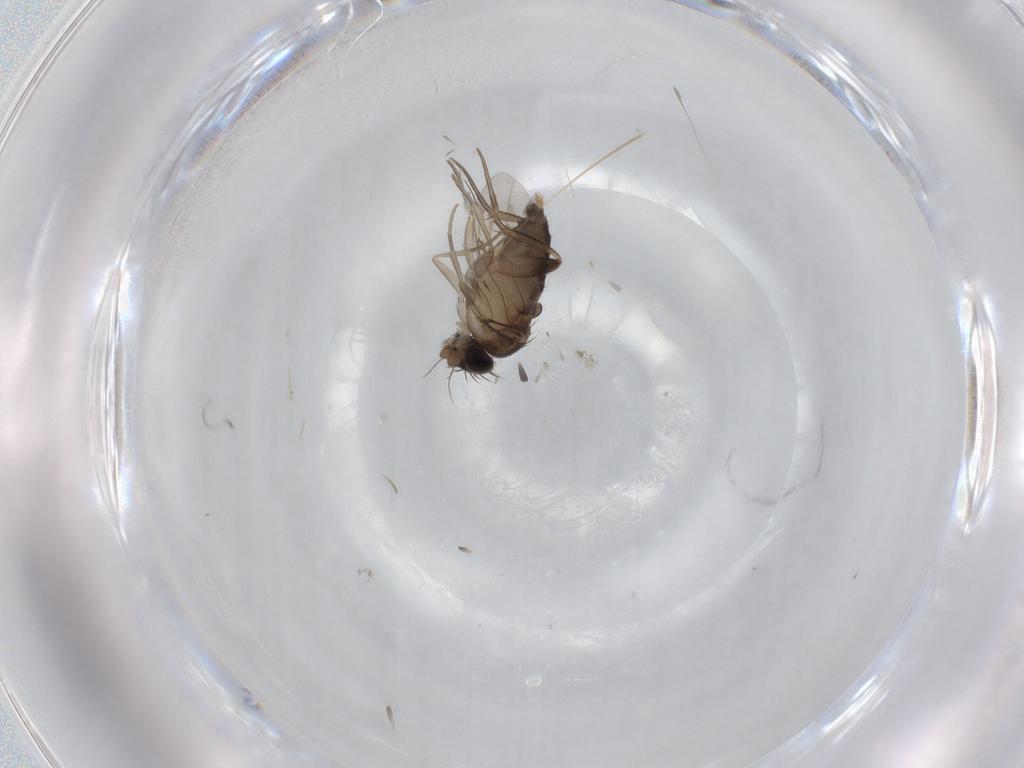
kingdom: Animalia
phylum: Arthropoda
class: Insecta
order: Diptera
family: Phoridae
